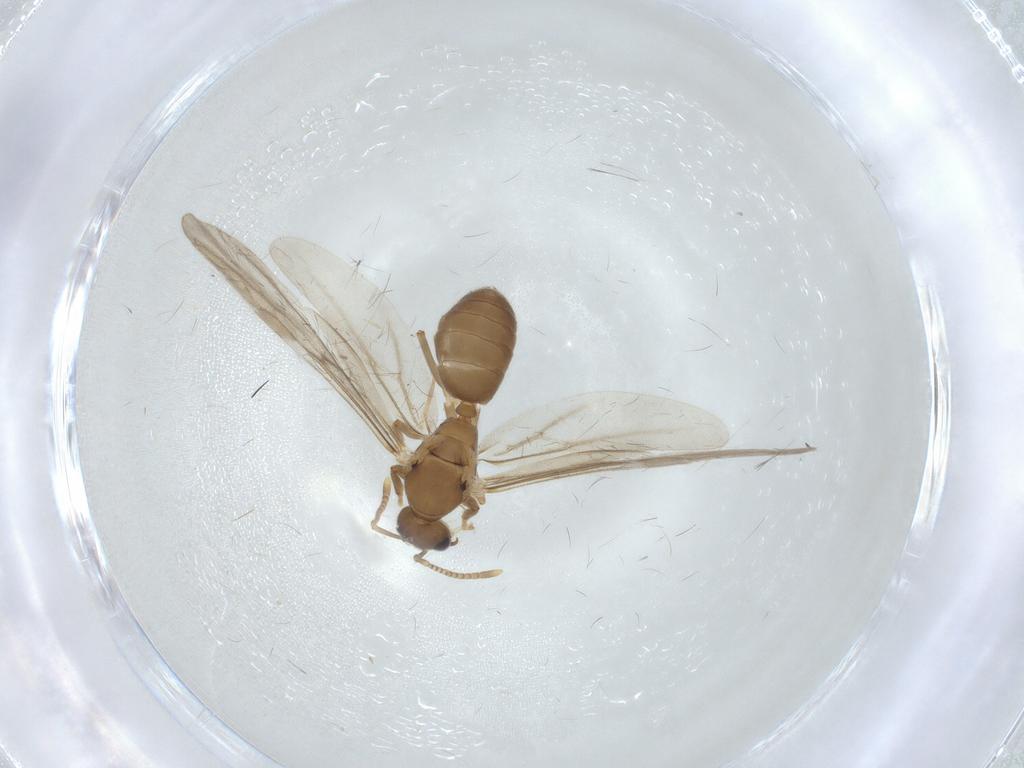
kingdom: Animalia
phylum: Arthropoda
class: Insecta
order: Hymenoptera
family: Formicidae
